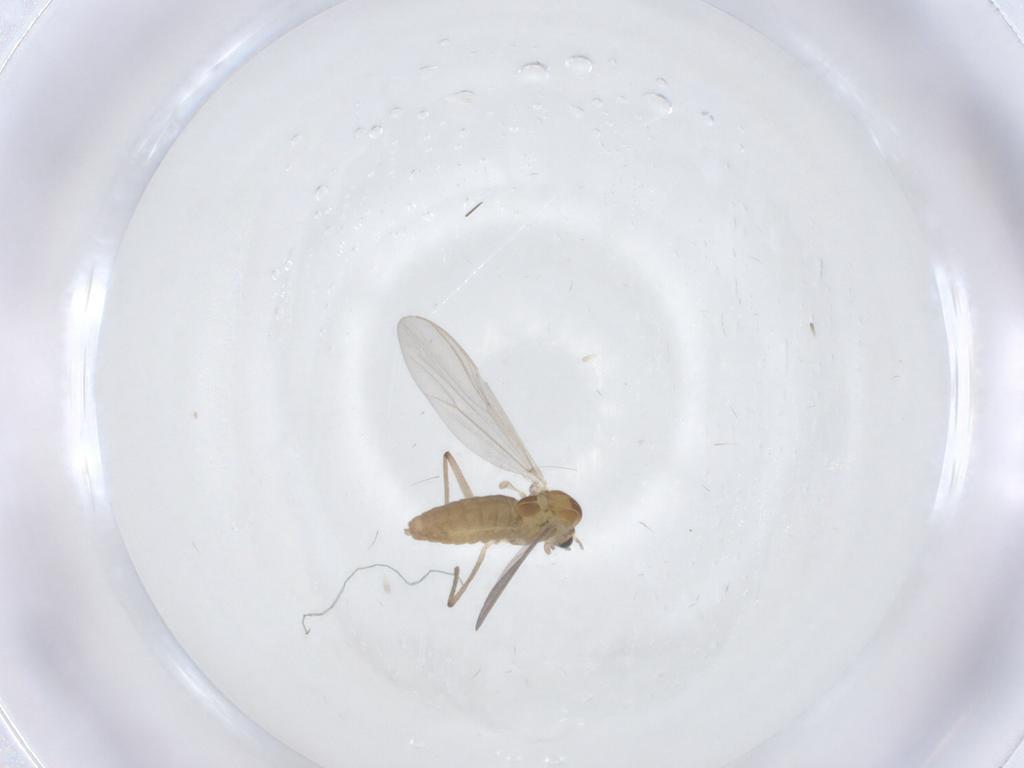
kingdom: Animalia
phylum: Arthropoda
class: Insecta
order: Diptera
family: Chironomidae
